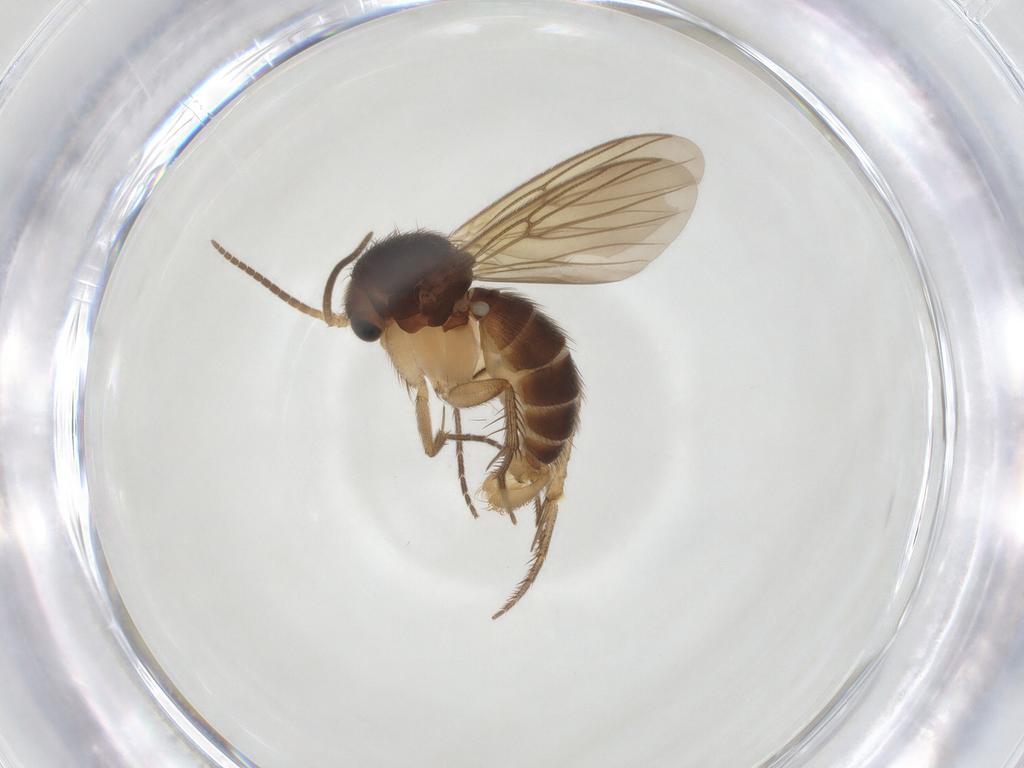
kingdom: Animalia
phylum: Arthropoda
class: Insecta
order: Diptera
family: Mycetophilidae
